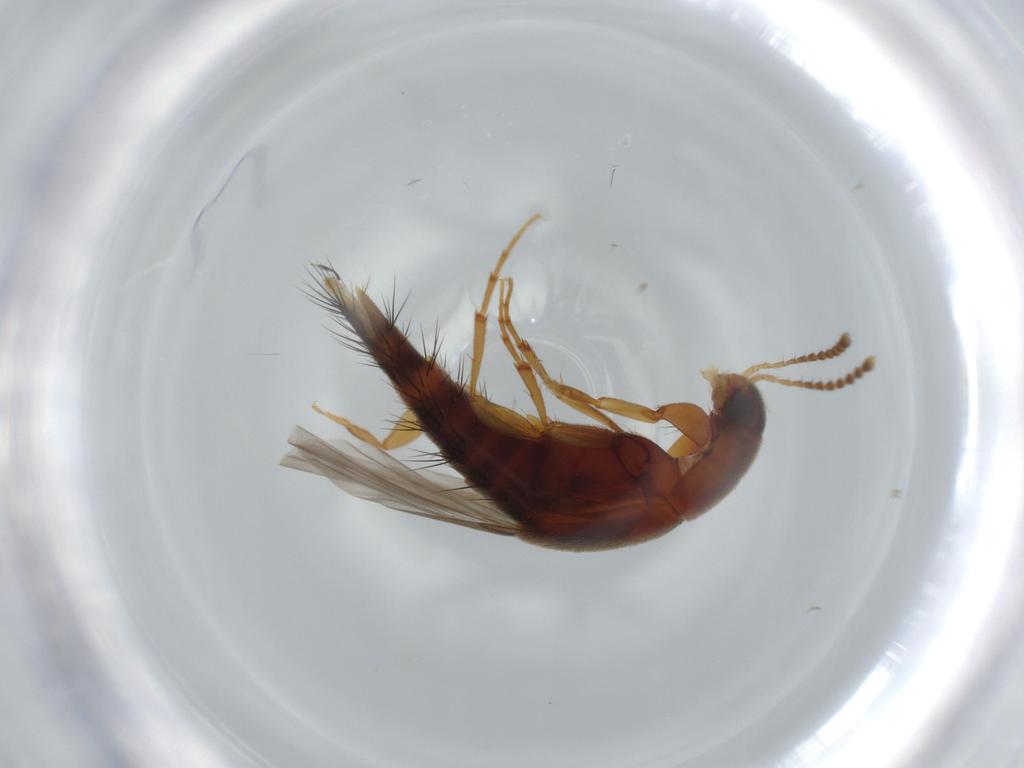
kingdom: Animalia
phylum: Arthropoda
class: Insecta
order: Coleoptera
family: Staphylinidae
